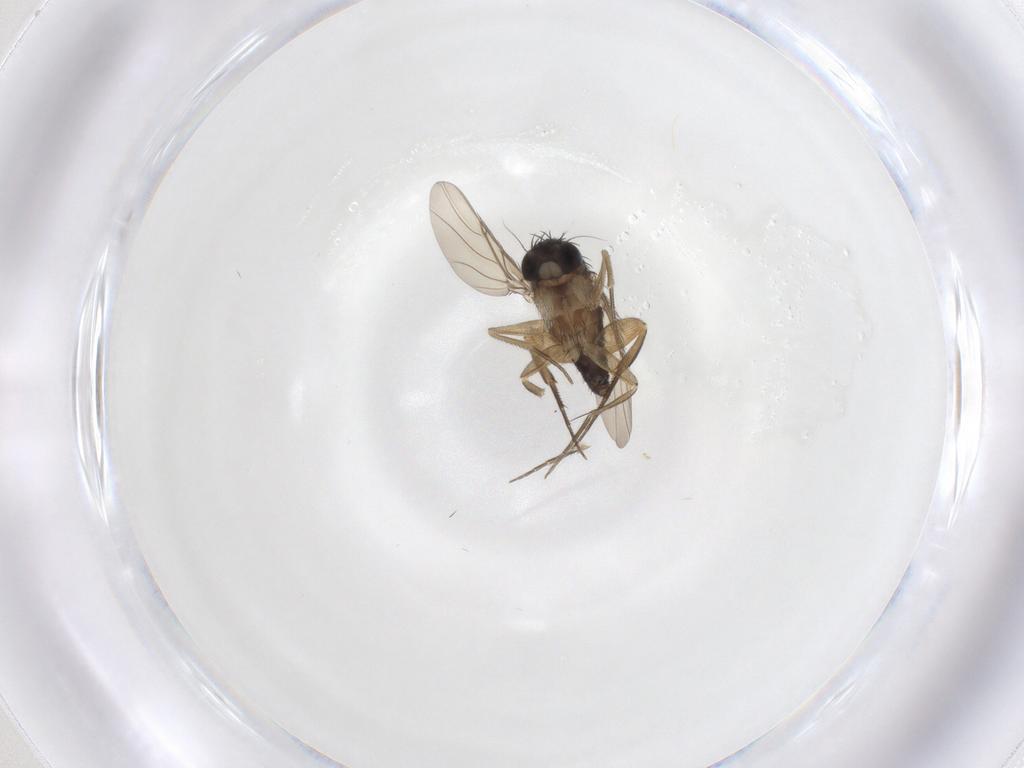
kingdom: Animalia
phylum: Arthropoda
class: Insecta
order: Diptera
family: Phoridae
